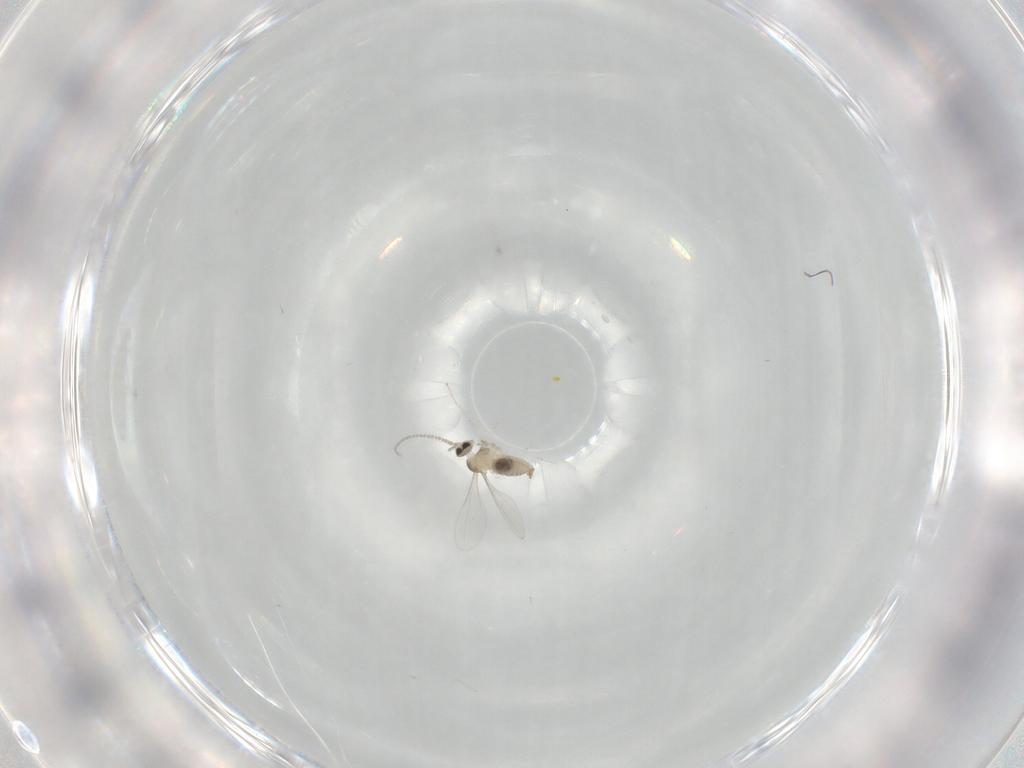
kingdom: Animalia
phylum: Arthropoda
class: Insecta
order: Diptera
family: Cecidomyiidae
